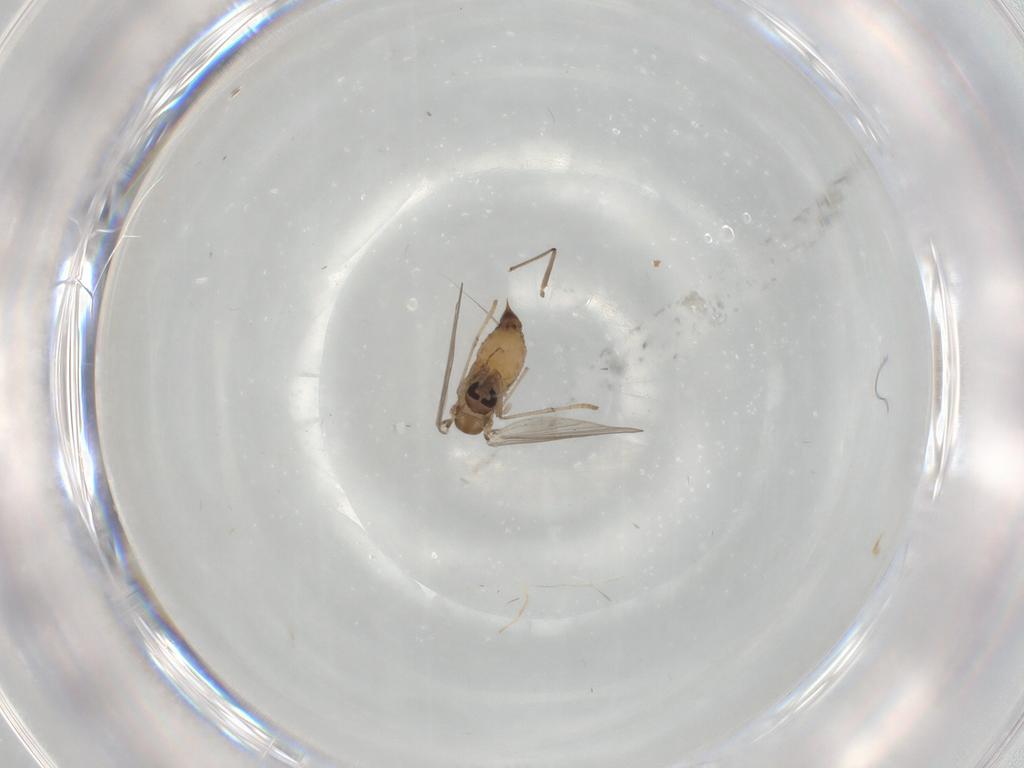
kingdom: Animalia
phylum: Arthropoda
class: Insecta
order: Diptera
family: Psychodidae
